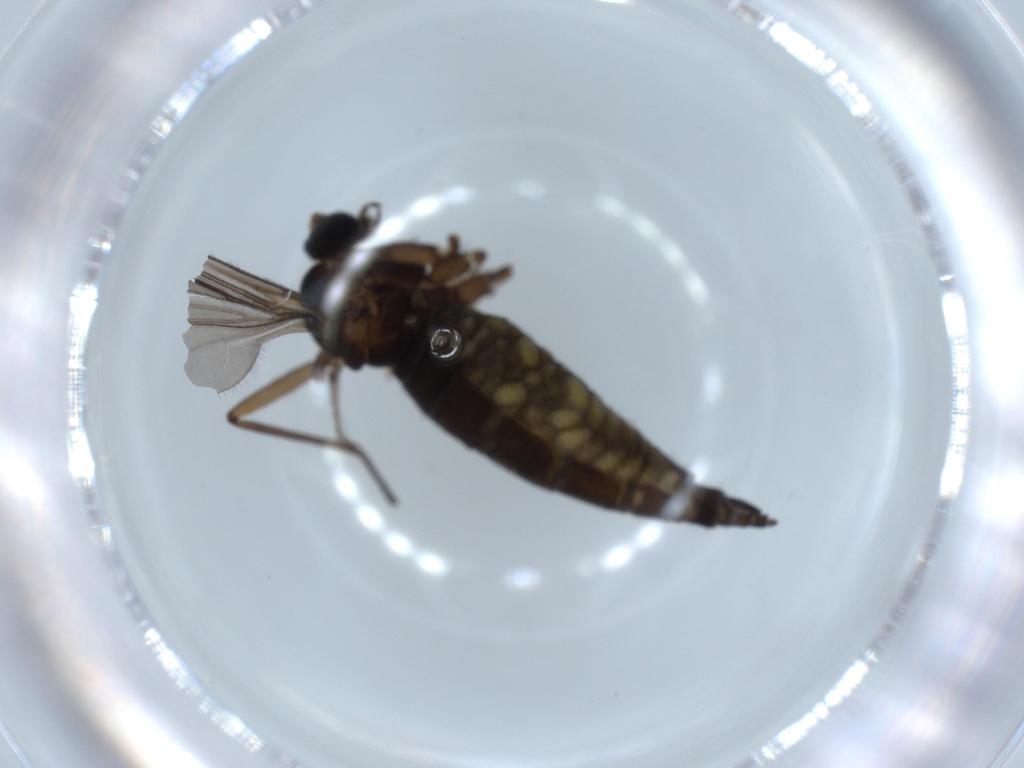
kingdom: Animalia
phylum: Arthropoda
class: Insecta
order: Diptera
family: Sciaridae
